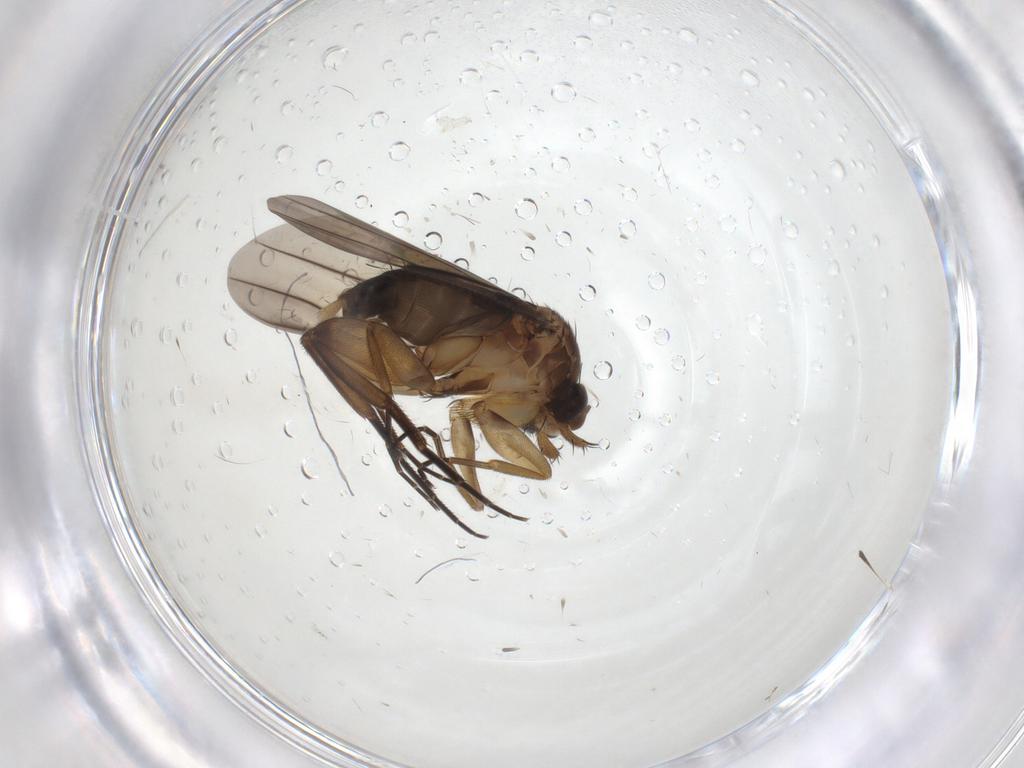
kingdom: Animalia
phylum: Arthropoda
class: Insecta
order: Diptera
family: Phoridae
